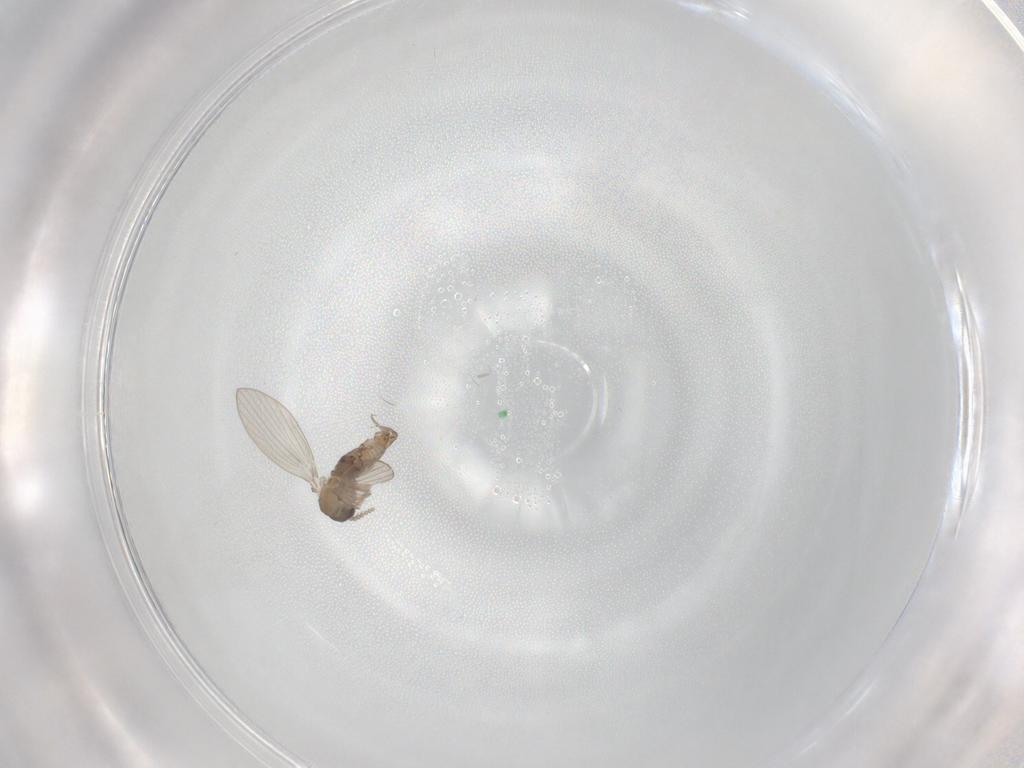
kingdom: Animalia
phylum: Arthropoda
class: Insecta
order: Diptera
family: Psychodidae
